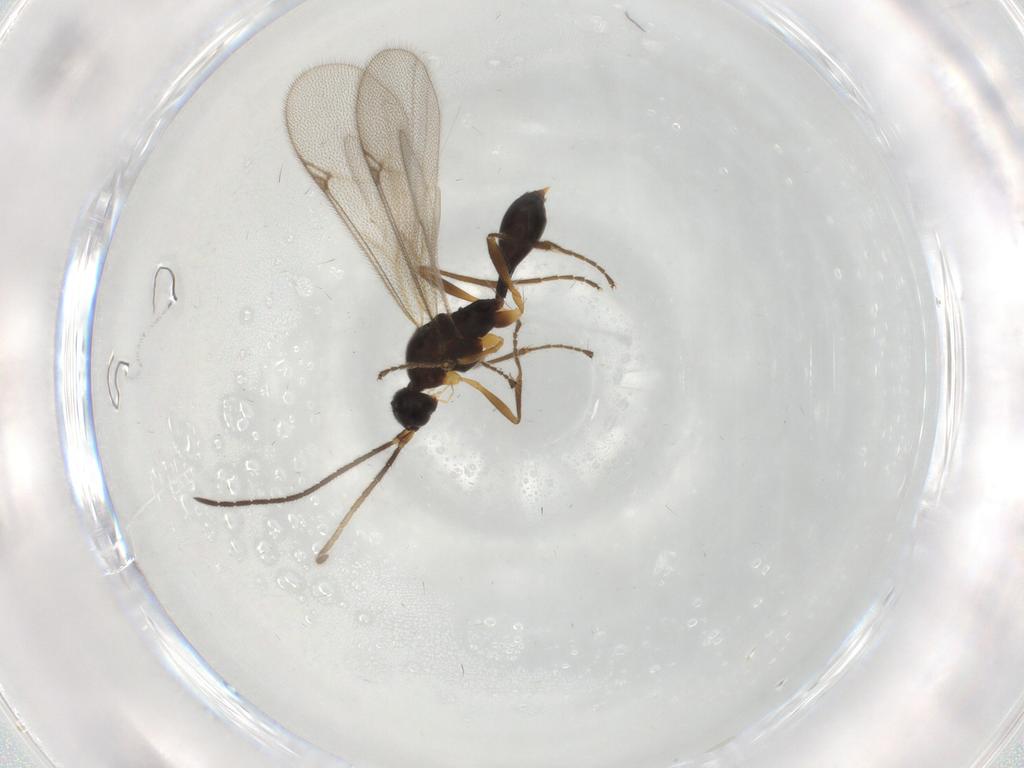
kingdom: Animalia
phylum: Arthropoda
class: Insecta
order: Hymenoptera
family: Proctotrupidae
